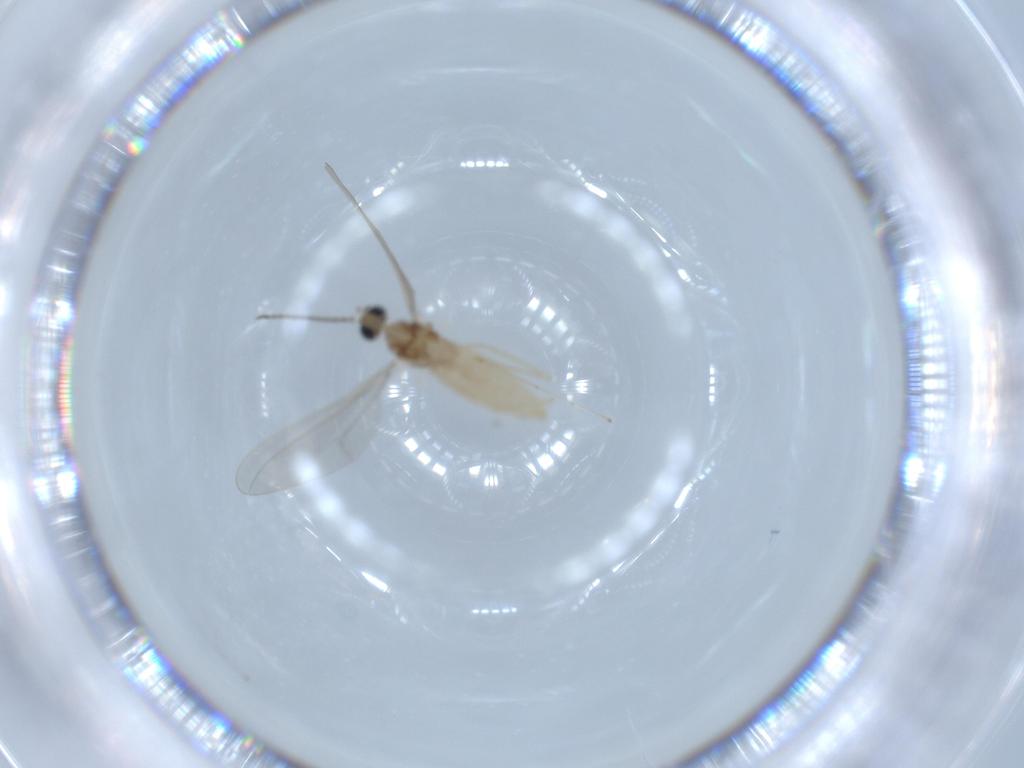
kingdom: Animalia
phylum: Arthropoda
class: Insecta
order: Diptera
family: Cecidomyiidae
